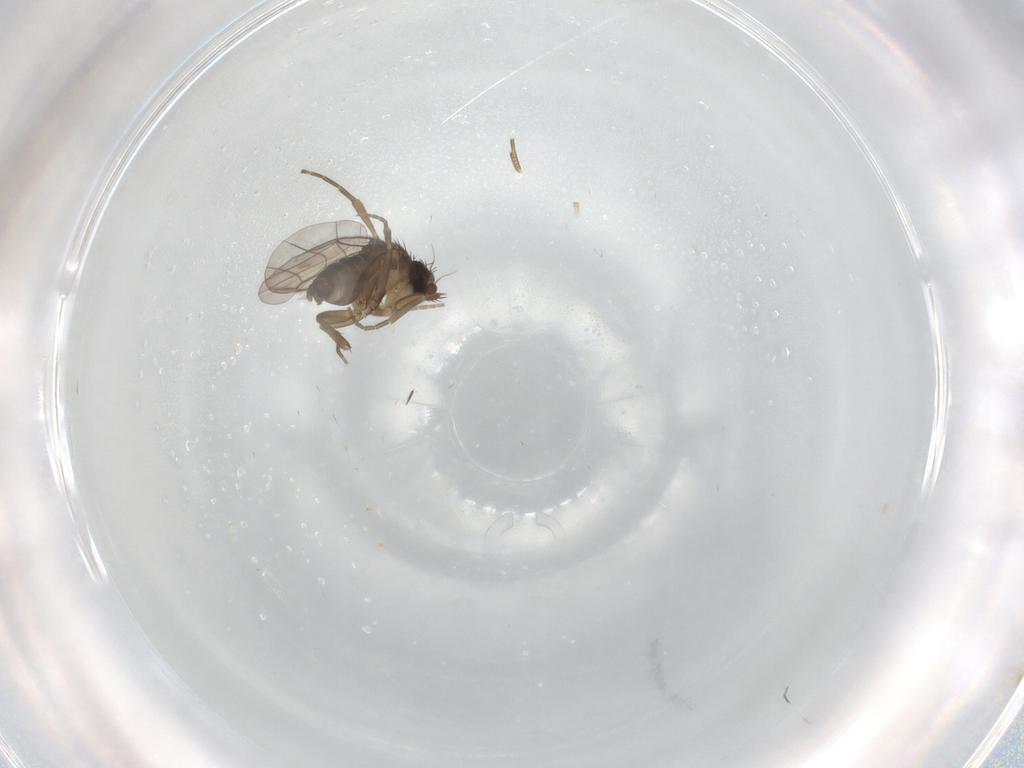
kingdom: Animalia
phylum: Arthropoda
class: Insecta
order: Diptera
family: Phoridae
